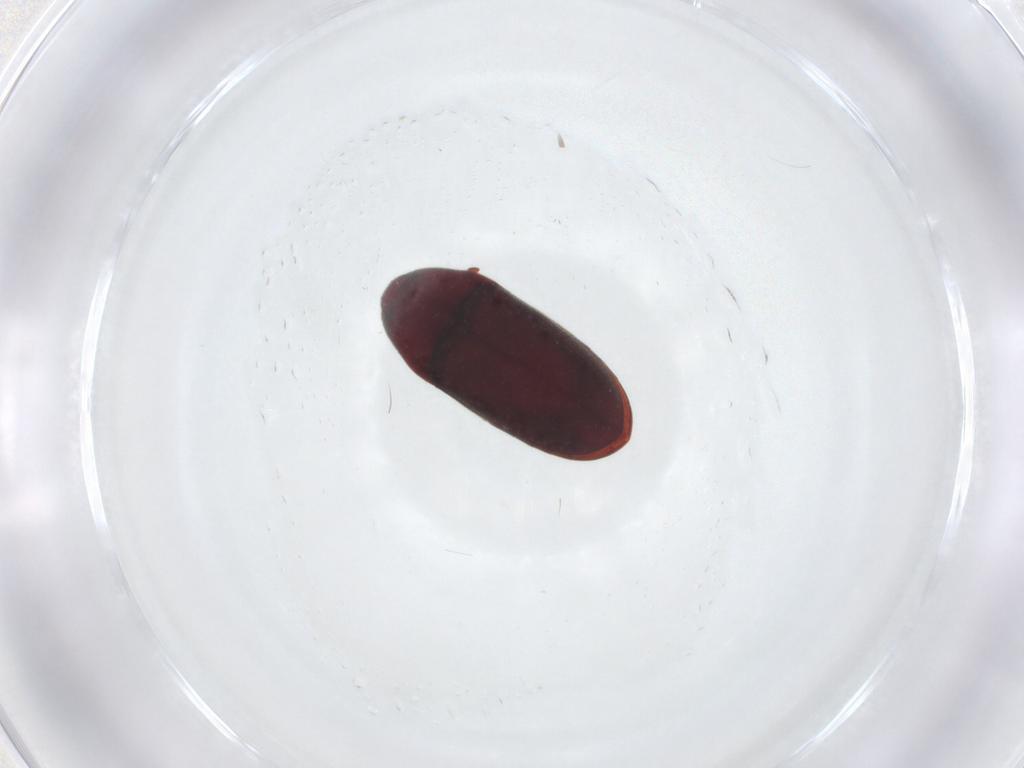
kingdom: Animalia
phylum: Arthropoda
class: Insecta
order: Coleoptera
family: Throscidae
